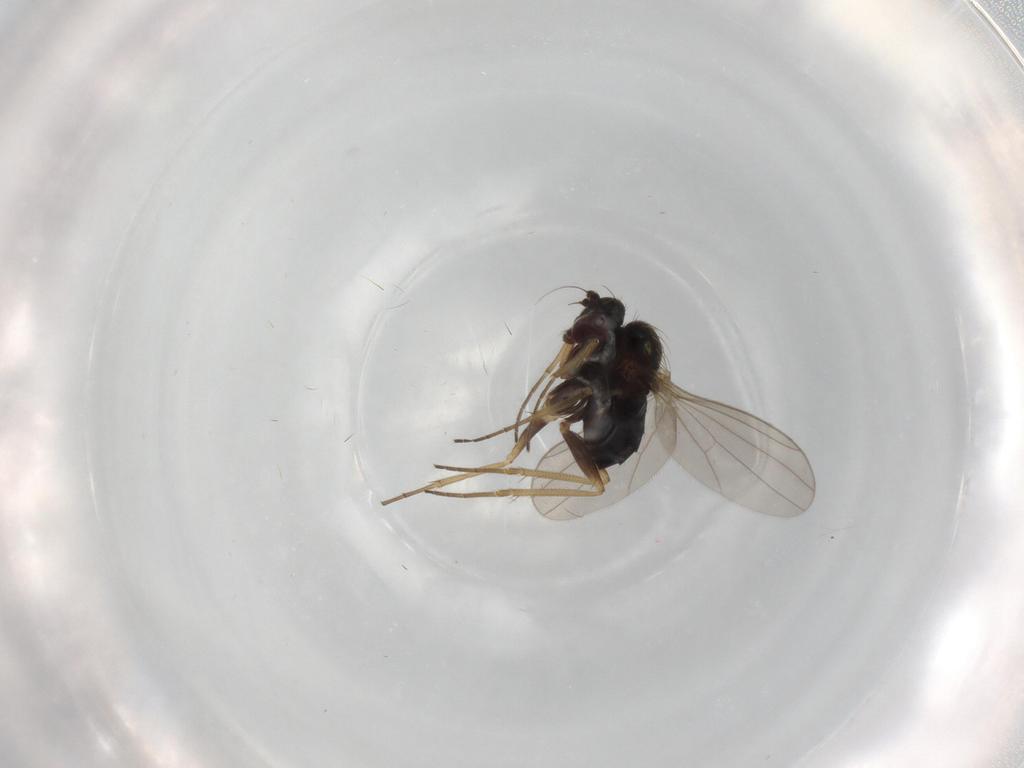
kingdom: Animalia
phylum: Arthropoda
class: Insecta
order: Diptera
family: Dolichopodidae
